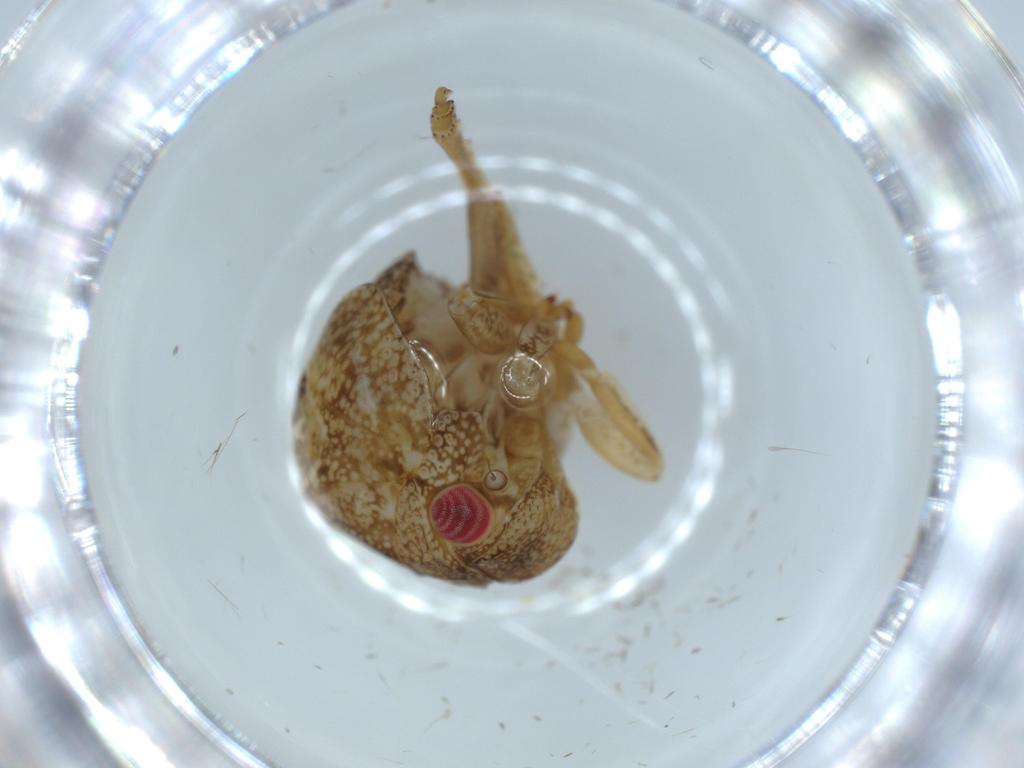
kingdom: Animalia
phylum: Arthropoda
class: Insecta
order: Hemiptera
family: Acanaloniidae
